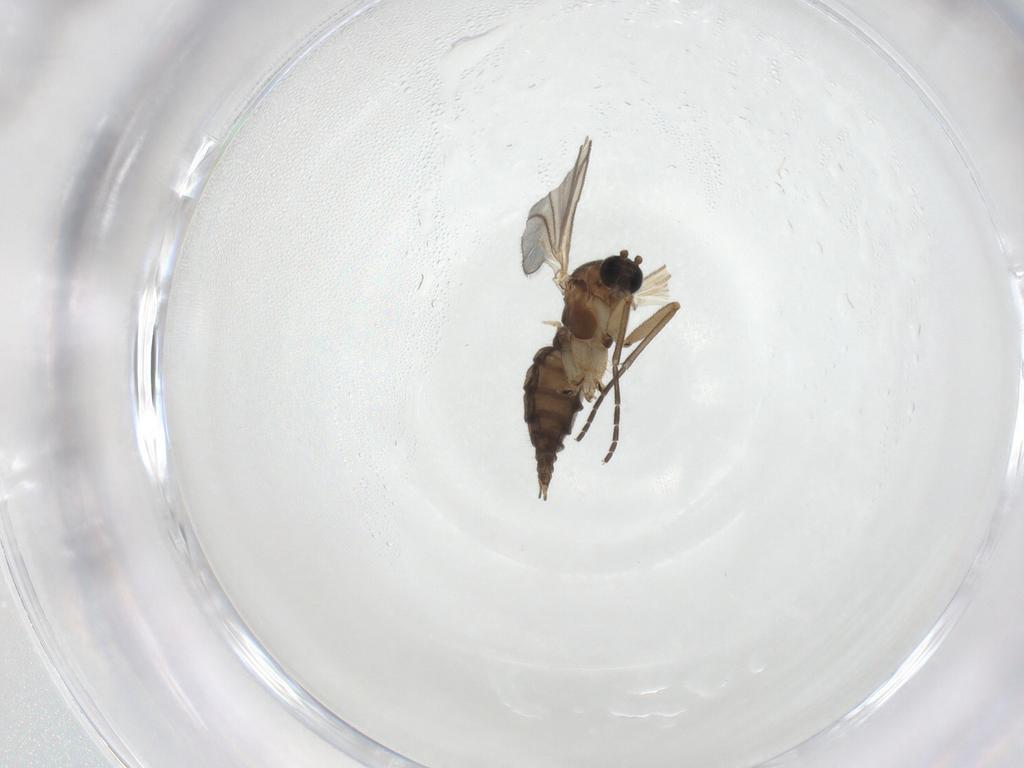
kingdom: Animalia
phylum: Arthropoda
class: Insecta
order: Diptera
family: Sciaridae
